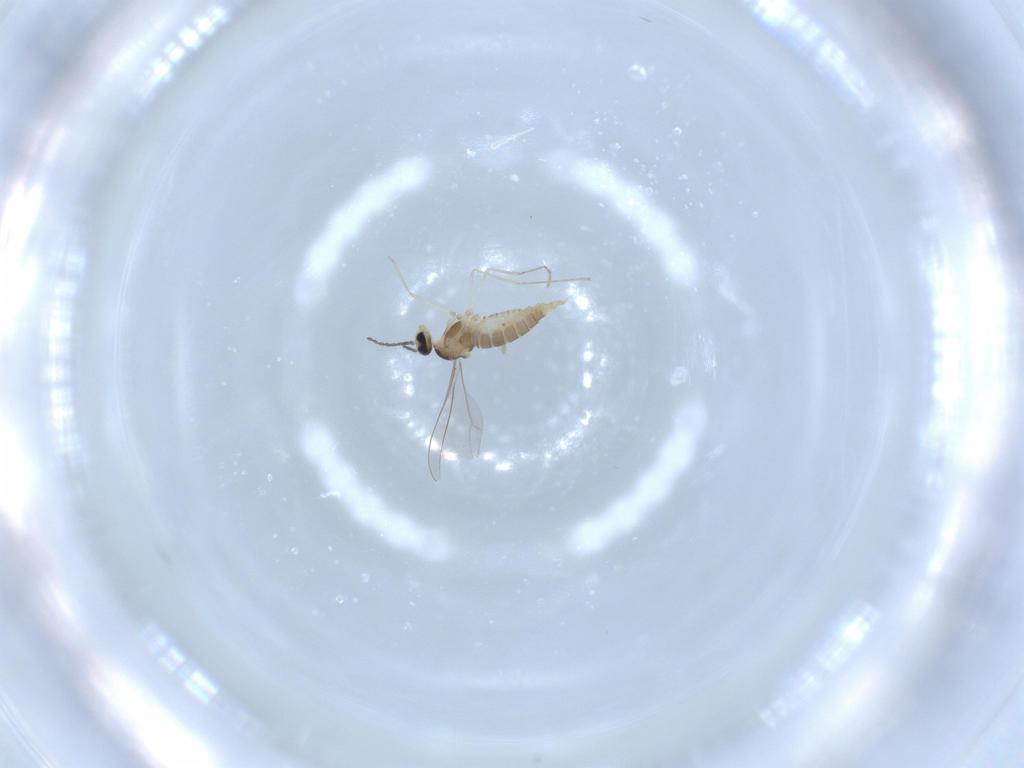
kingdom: Animalia
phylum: Arthropoda
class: Insecta
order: Diptera
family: Cecidomyiidae
